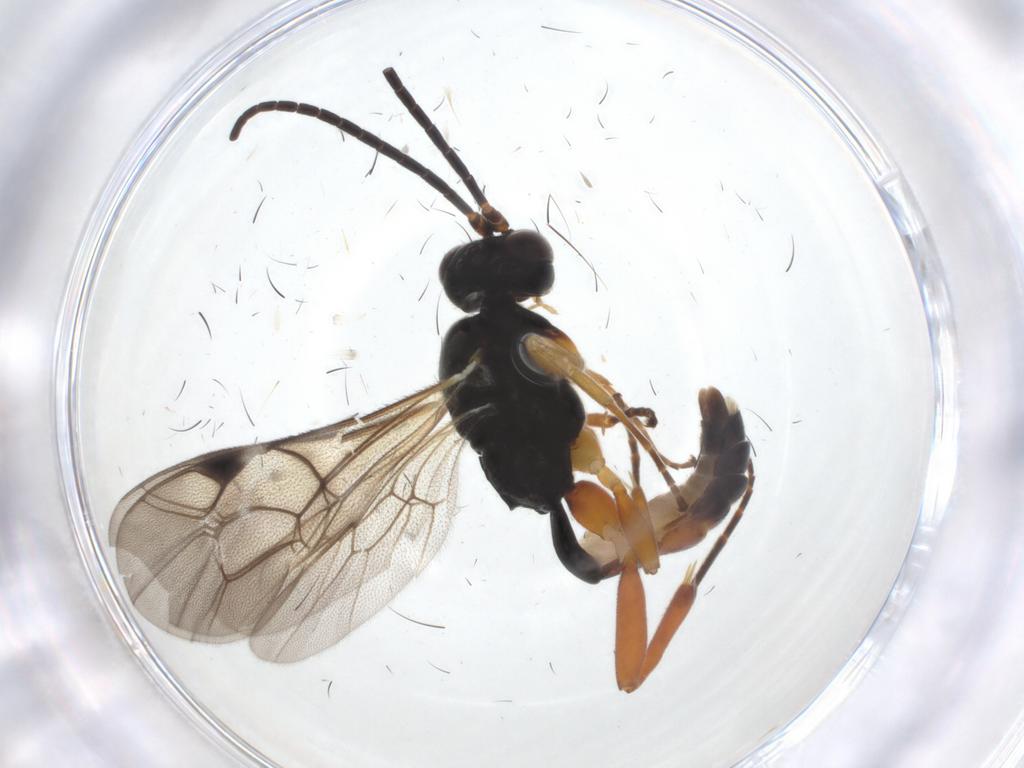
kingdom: Animalia
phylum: Arthropoda
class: Insecta
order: Hymenoptera
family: Ichneumonidae
